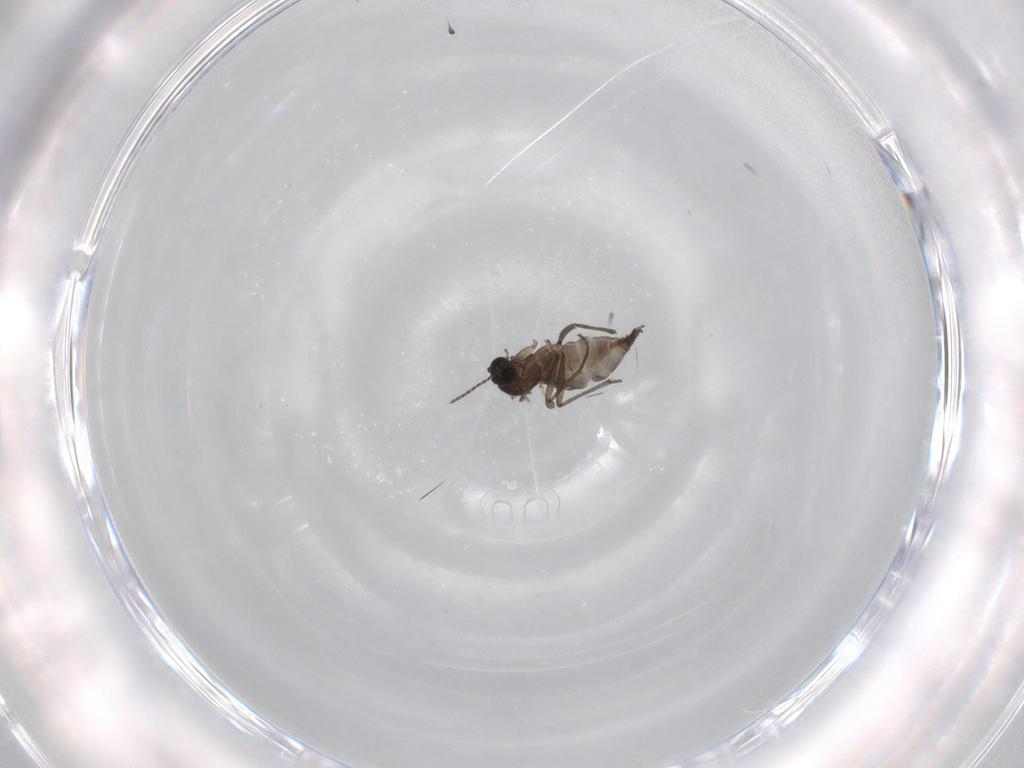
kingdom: Animalia
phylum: Arthropoda
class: Insecta
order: Diptera
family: Sciaridae
